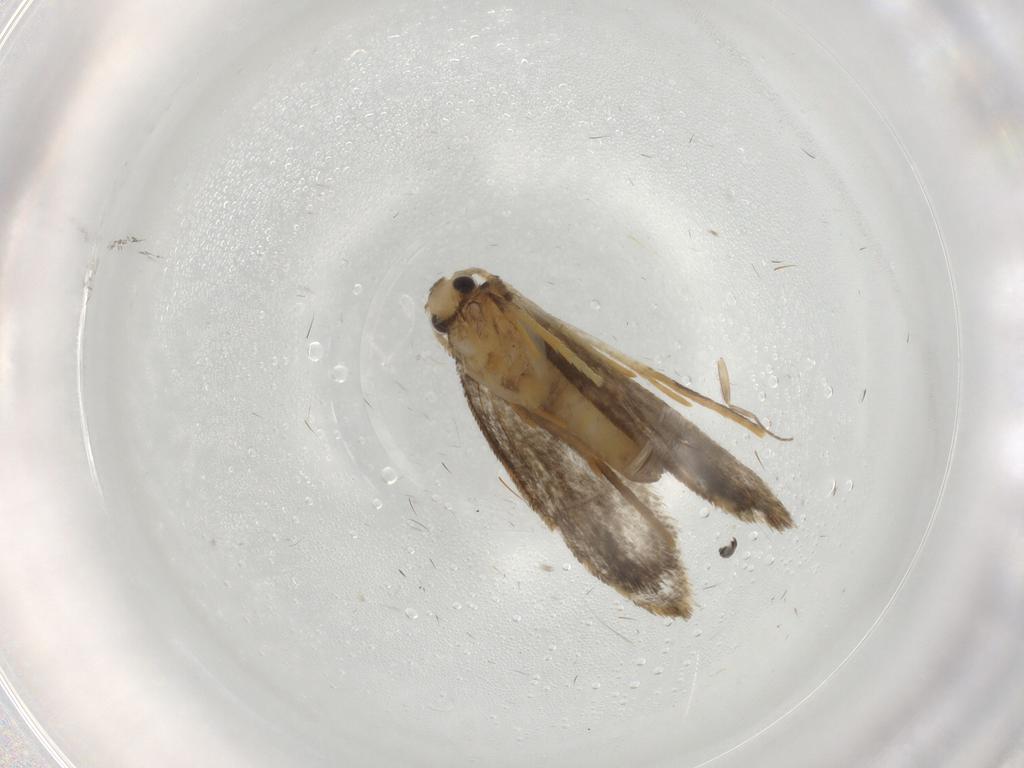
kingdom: Animalia
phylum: Arthropoda
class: Insecta
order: Lepidoptera
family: Psychidae
